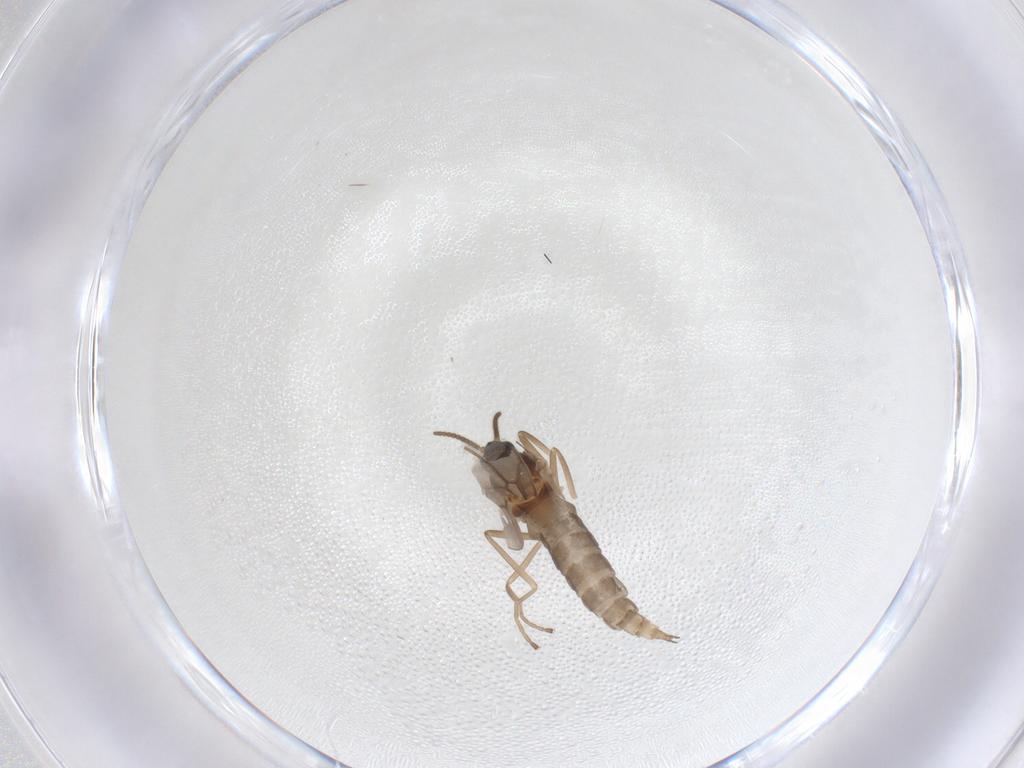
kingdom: Animalia
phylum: Arthropoda
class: Insecta
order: Diptera
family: Cecidomyiidae
